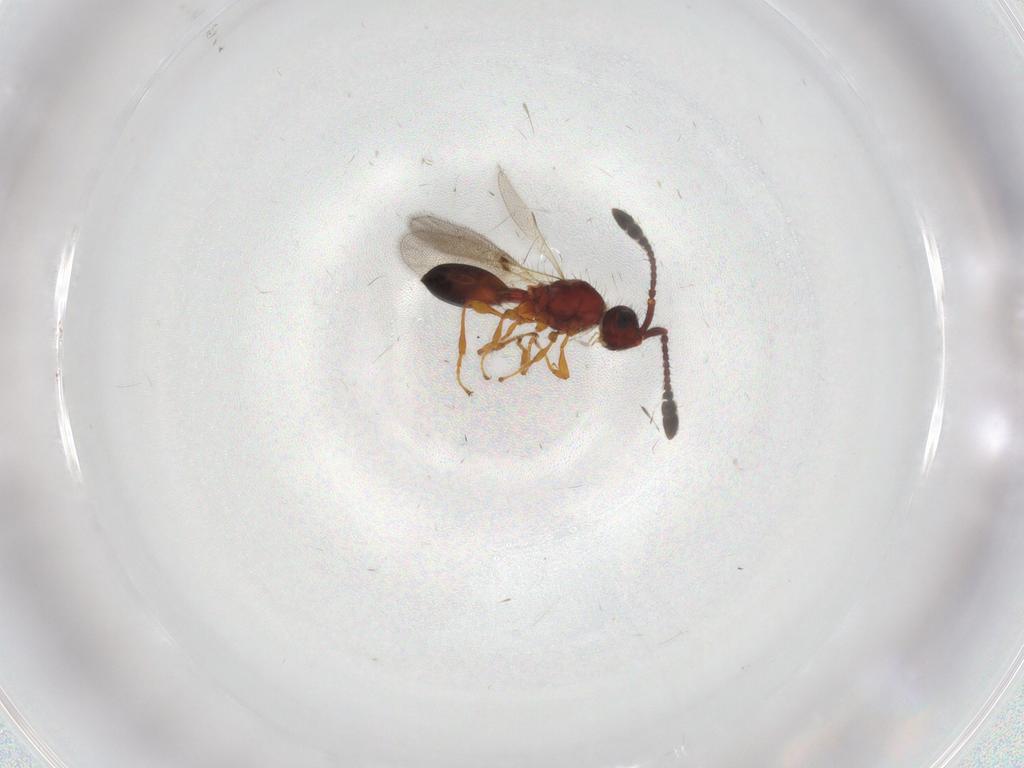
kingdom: Animalia
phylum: Arthropoda
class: Insecta
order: Hymenoptera
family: Diapriidae
